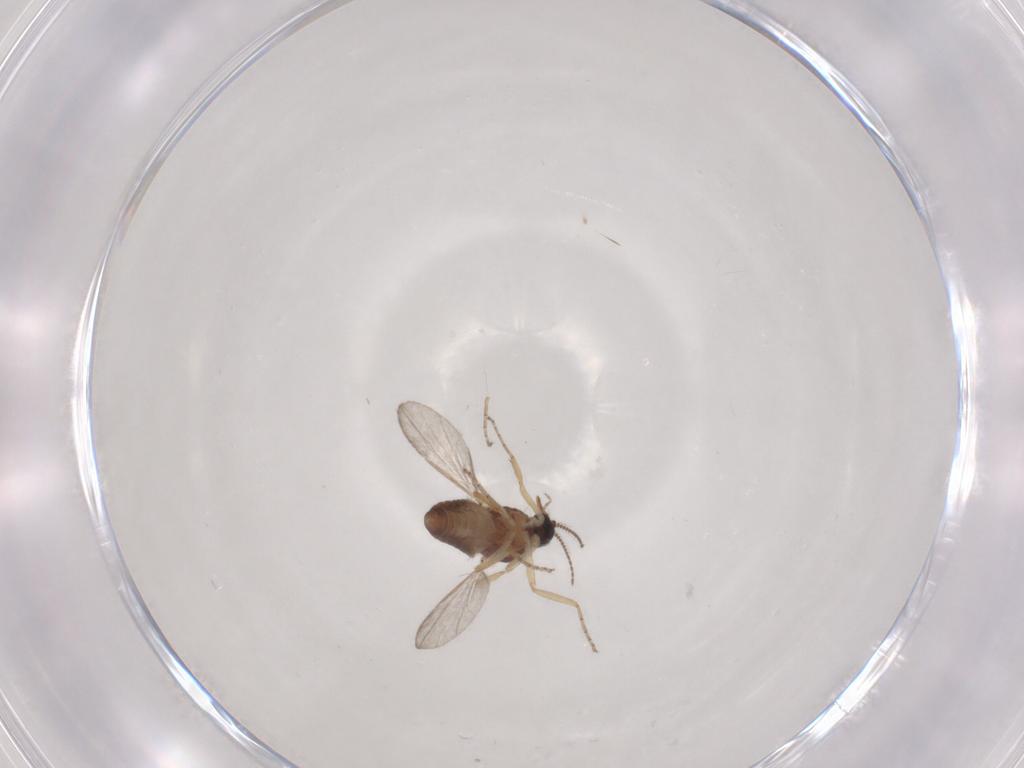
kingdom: Animalia
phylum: Arthropoda
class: Insecta
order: Diptera
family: Ceratopogonidae
